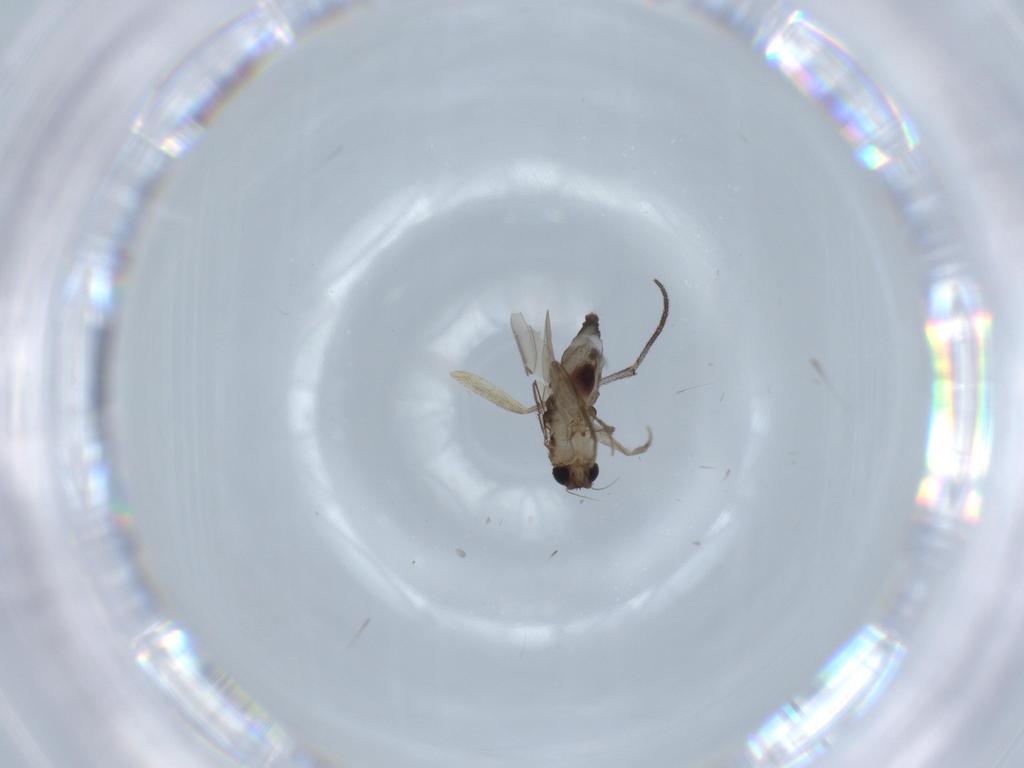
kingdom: Animalia
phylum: Arthropoda
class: Insecta
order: Diptera
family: Phoridae
